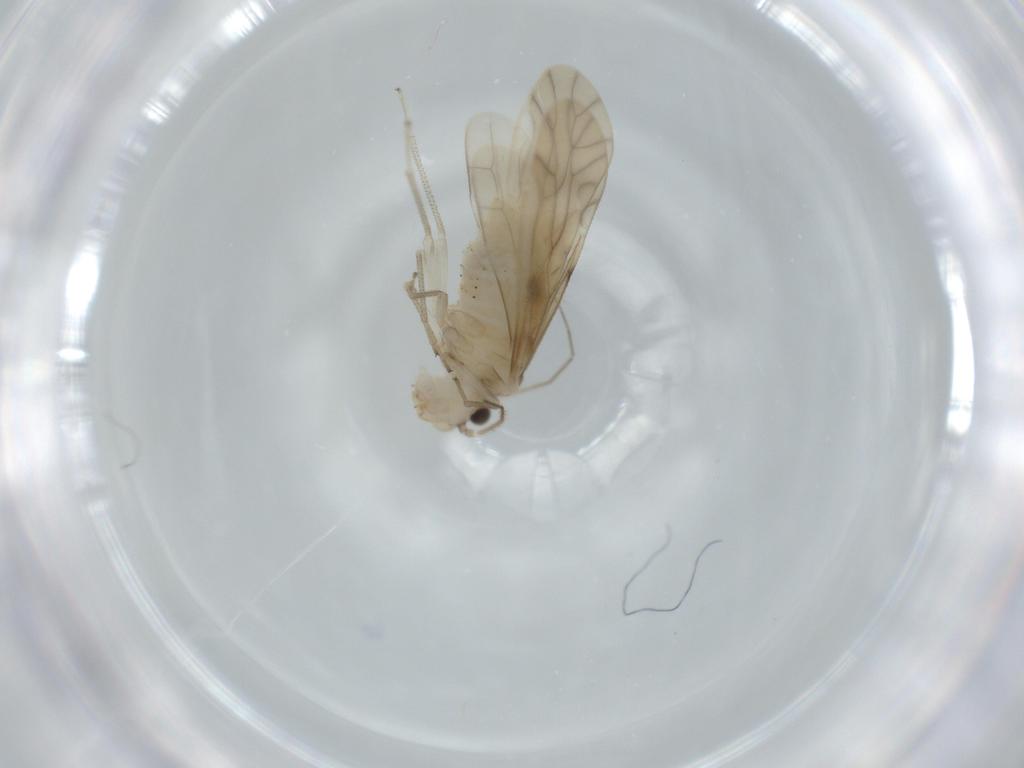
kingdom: Animalia
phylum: Arthropoda
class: Insecta
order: Psocodea
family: Caeciliusidae
